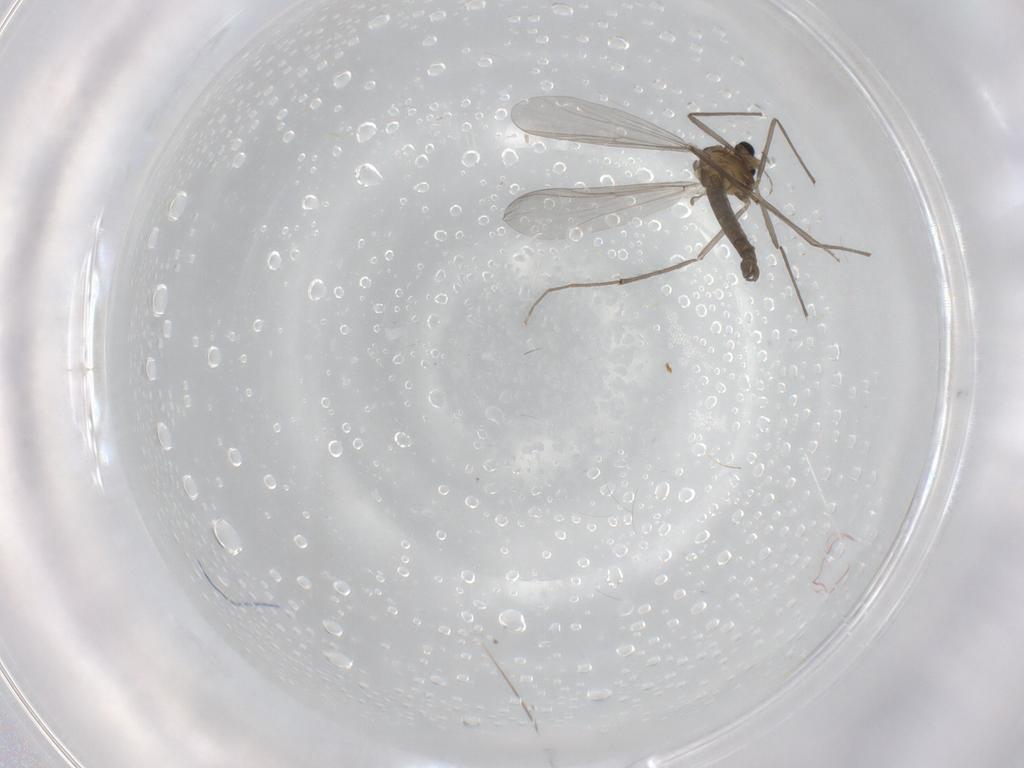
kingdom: Animalia
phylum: Arthropoda
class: Insecta
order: Diptera
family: Chironomidae
